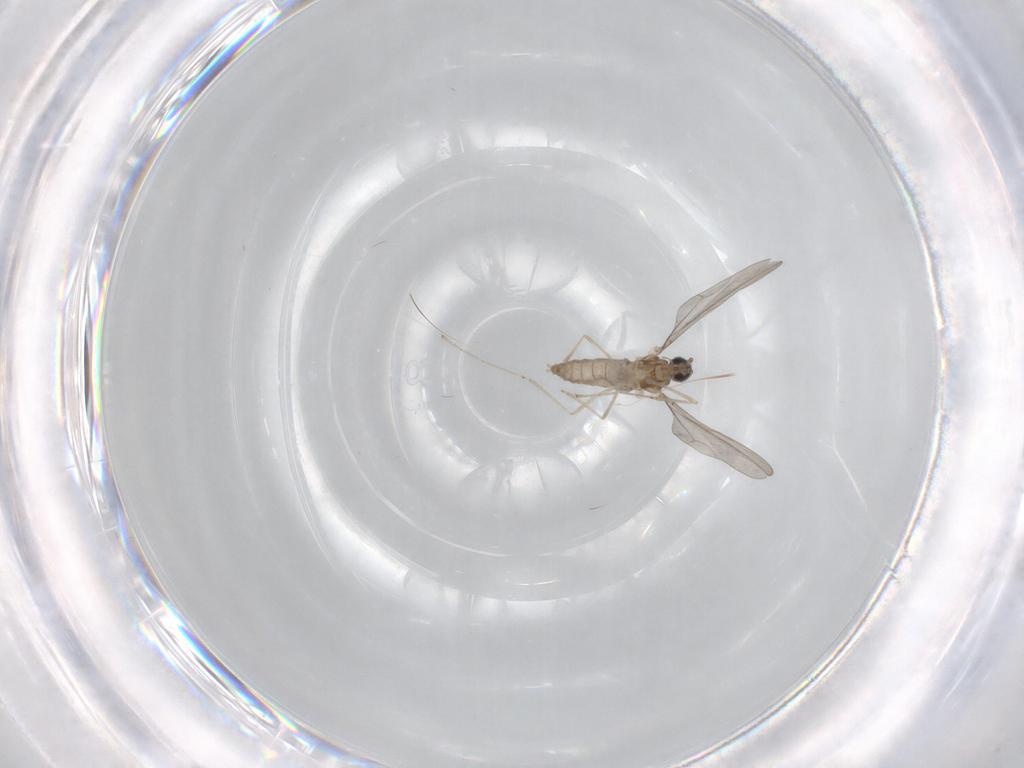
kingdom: Animalia
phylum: Arthropoda
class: Insecta
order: Diptera
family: Cecidomyiidae
